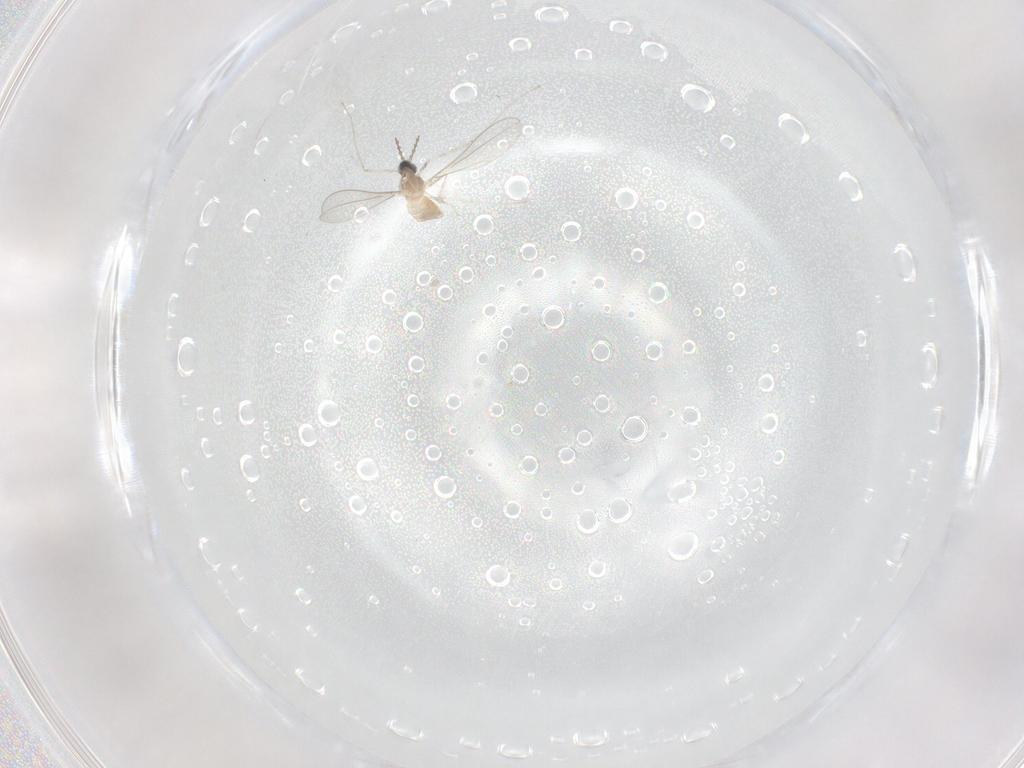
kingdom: Animalia
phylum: Arthropoda
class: Insecta
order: Diptera
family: Cecidomyiidae
